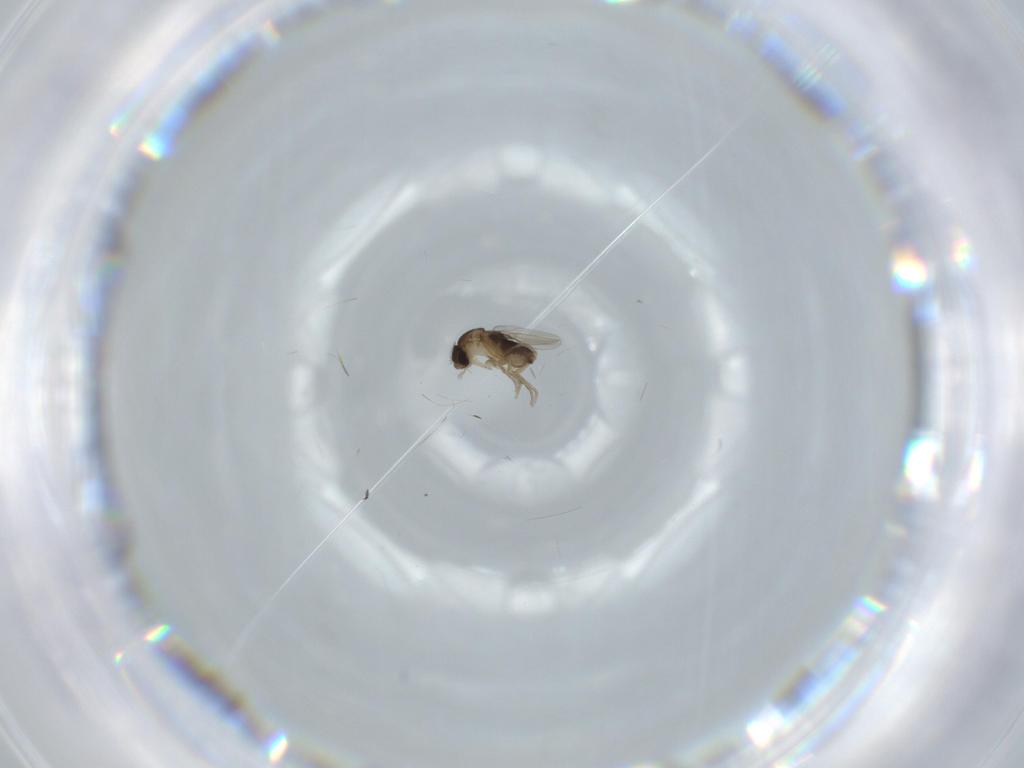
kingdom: Animalia
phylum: Arthropoda
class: Insecta
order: Diptera
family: Phoridae
